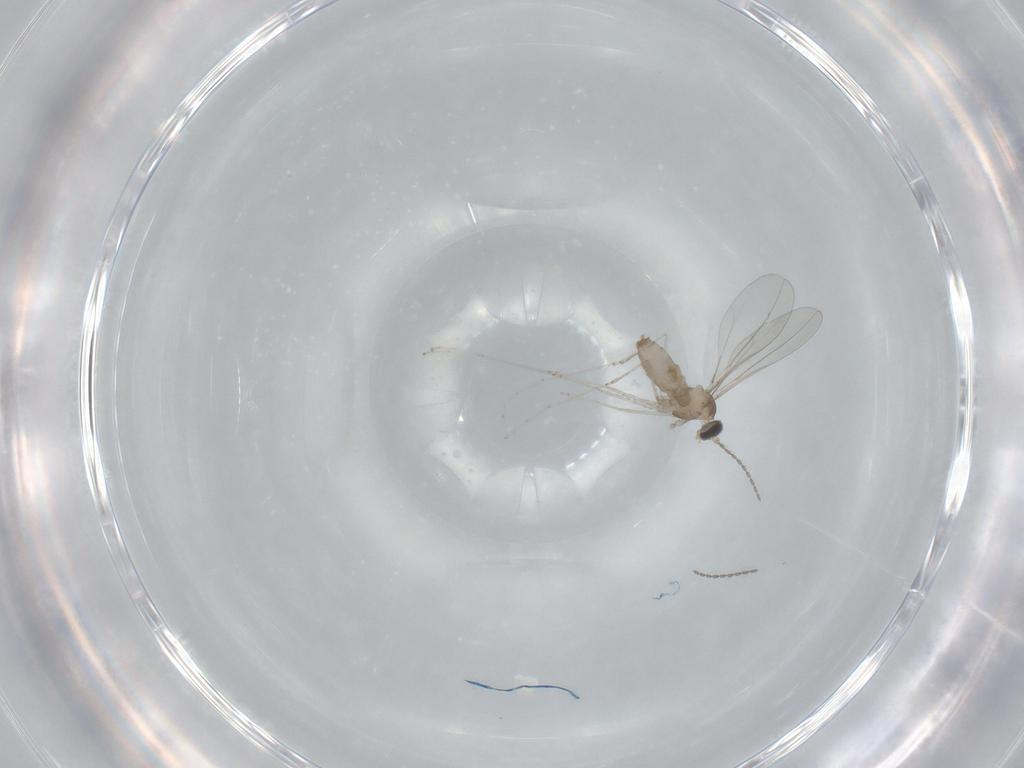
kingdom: Animalia
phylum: Arthropoda
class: Insecta
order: Diptera
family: Cecidomyiidae
